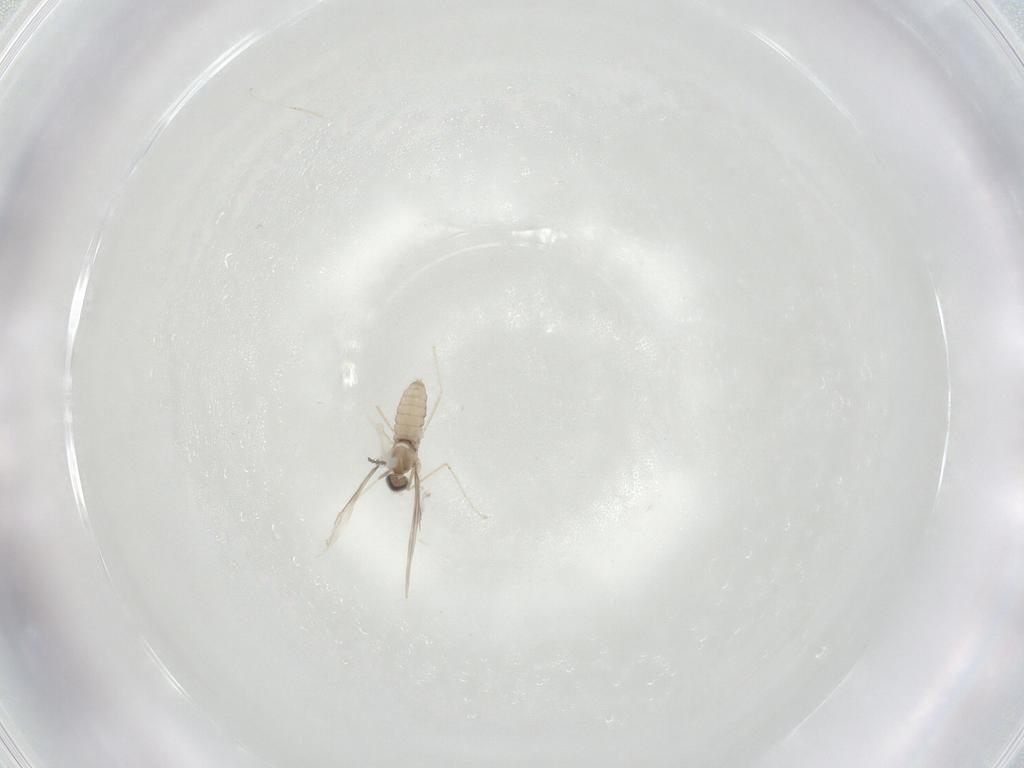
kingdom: Animalia
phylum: Arthropoda
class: Insecta
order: Diptera
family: Cecidomyiidae
